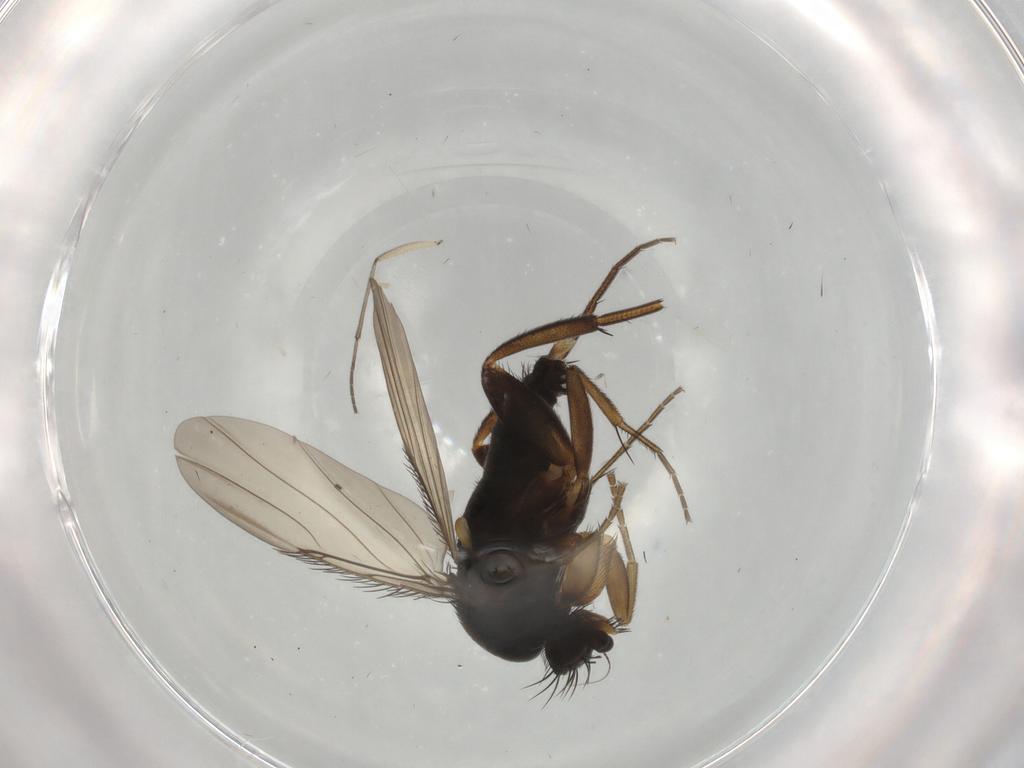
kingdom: Animalia
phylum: Arthropoda
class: Insecta
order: Diptera
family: Phoridae
